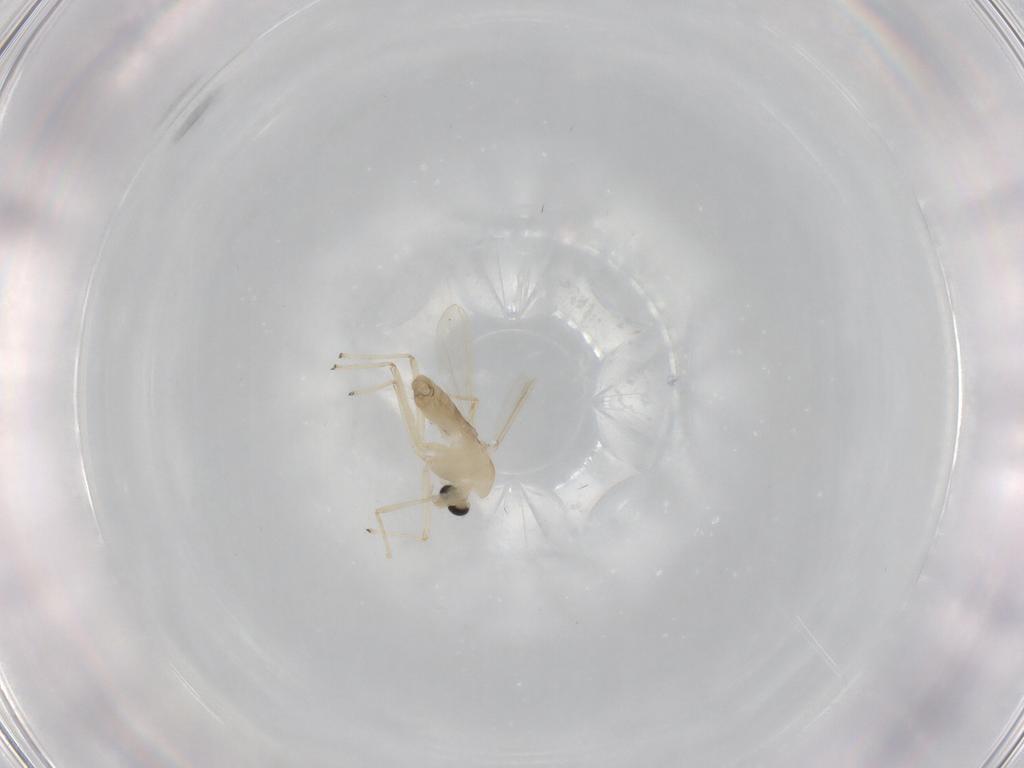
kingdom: Animalia
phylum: Arthropoda
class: Insecta
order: Diptera
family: Chironomidae
